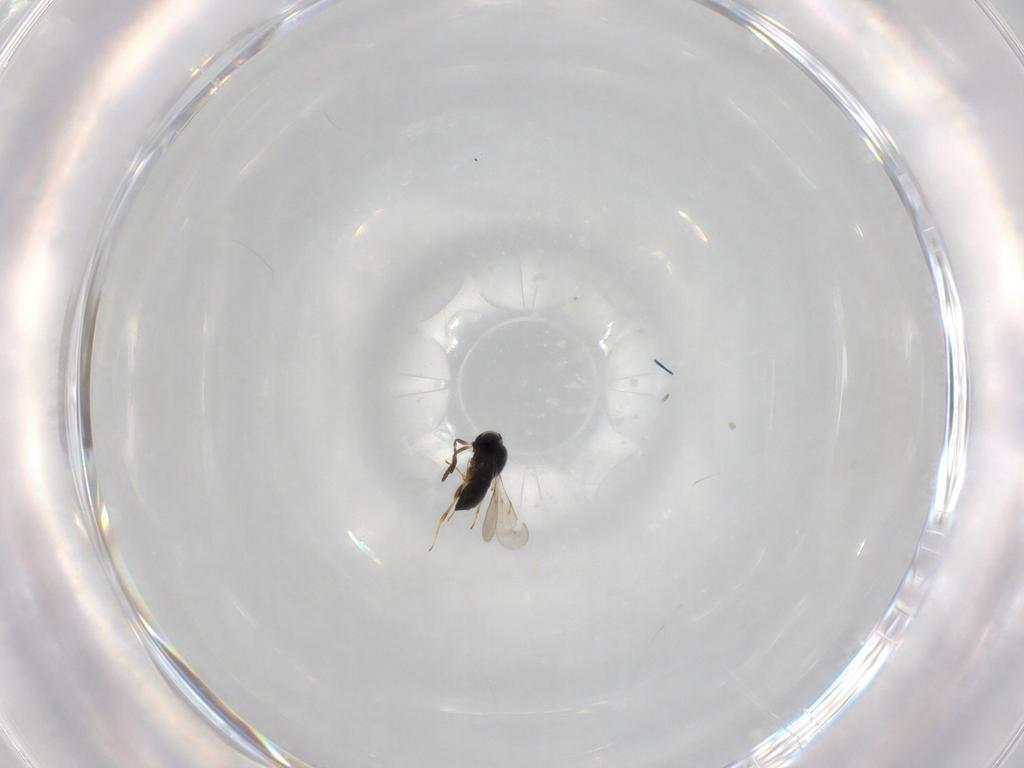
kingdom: Animalia
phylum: Arthropoda
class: Insecta
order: Hymenoptera
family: Scelionidae
